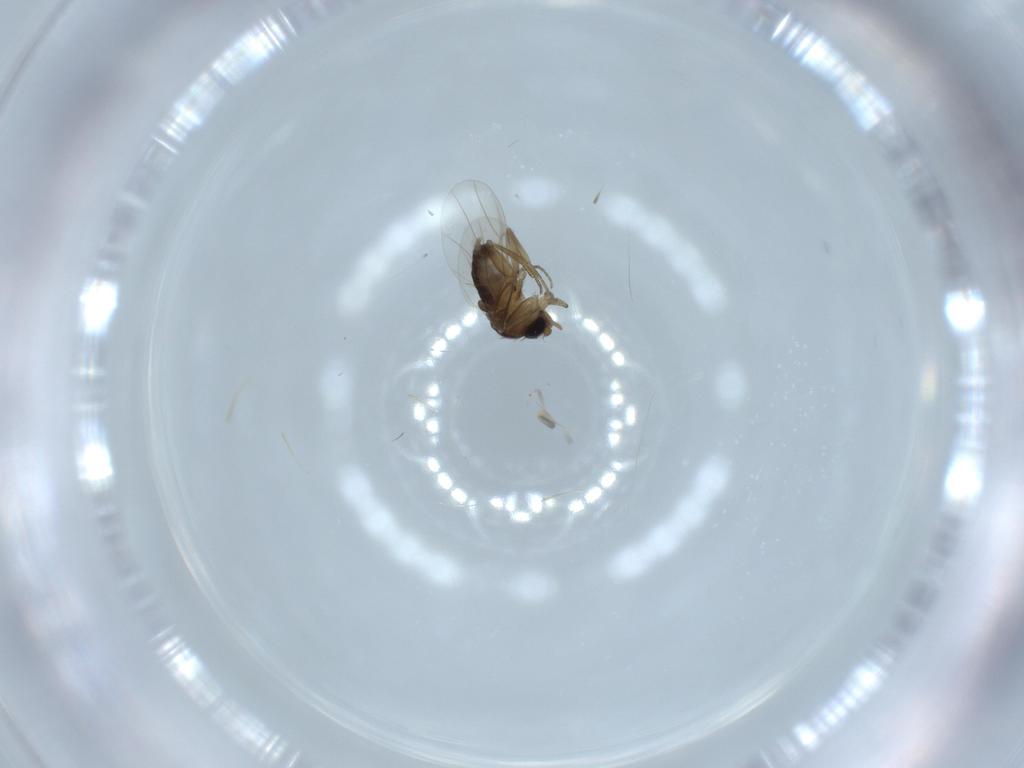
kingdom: Animalia
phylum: Arthropoda
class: Insecta
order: Diptera
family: Phoridae
